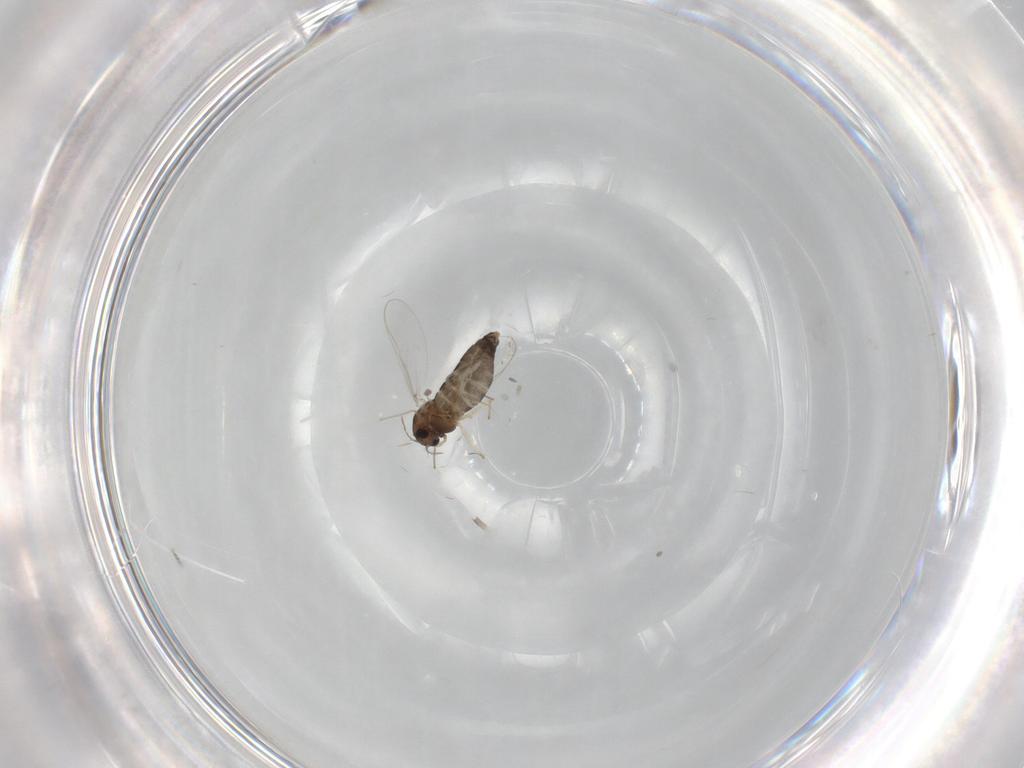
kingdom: Animalia
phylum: Arthropoda
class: Insecta
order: Diptera
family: Chironomidae
